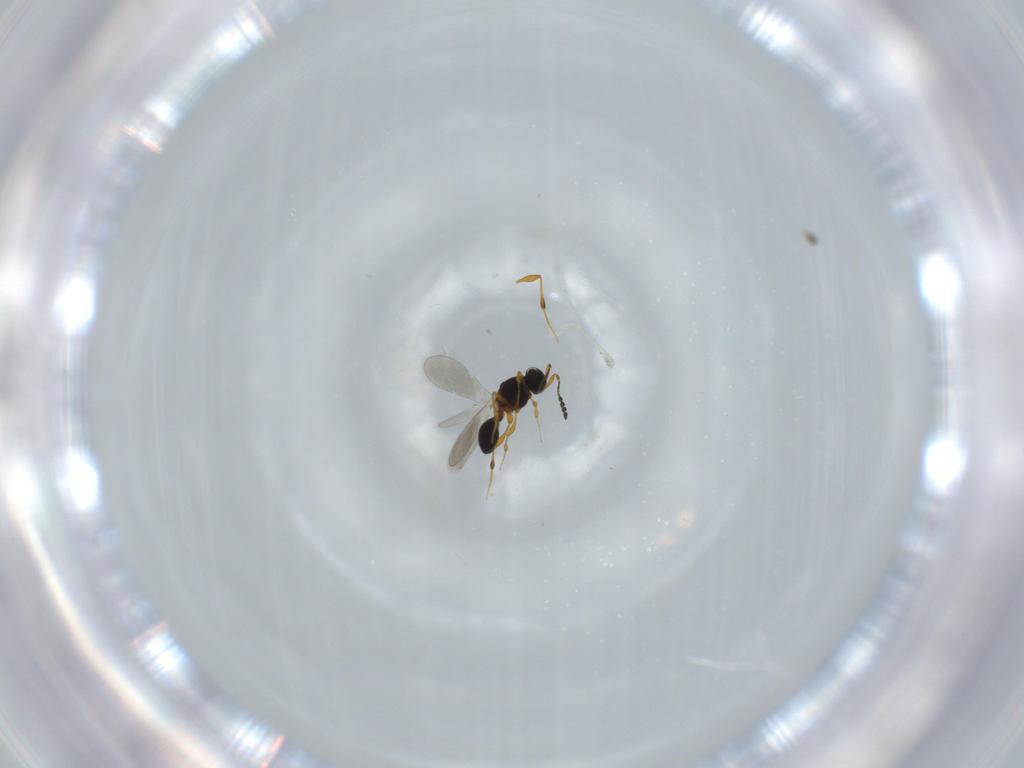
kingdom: Animalia
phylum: Arthropoda
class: Insecta
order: Hymenoptera
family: Platygastridae
